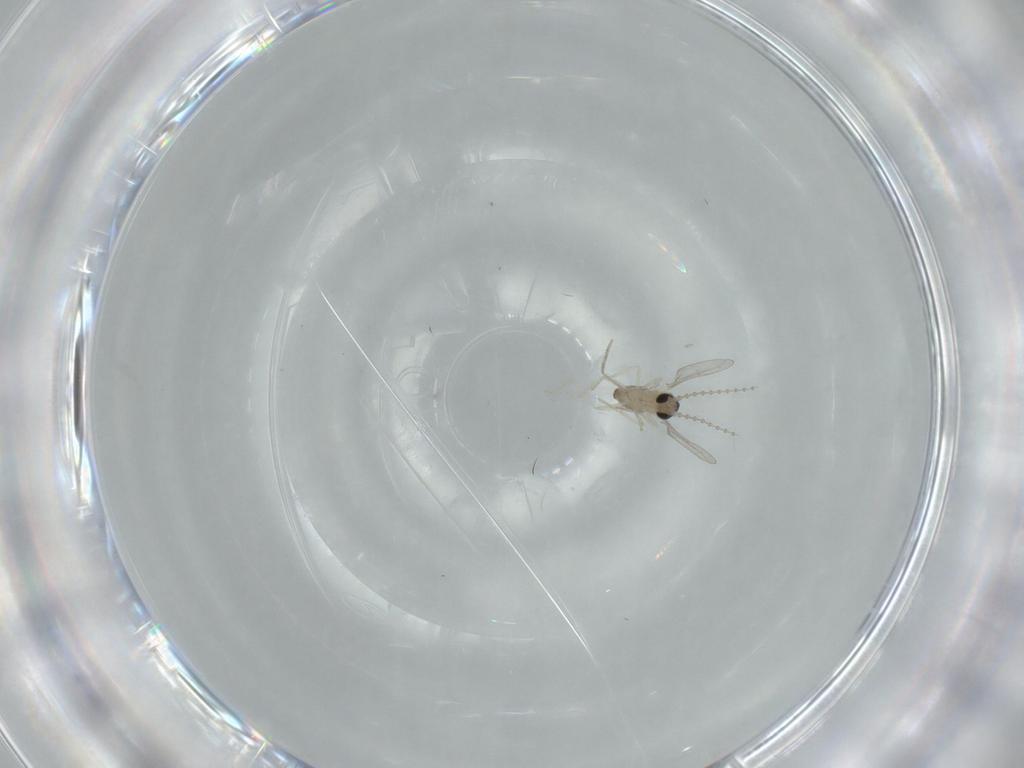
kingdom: Animalia
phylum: Arthropoda
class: Insecta
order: Diptera
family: Cecidomyiidae
